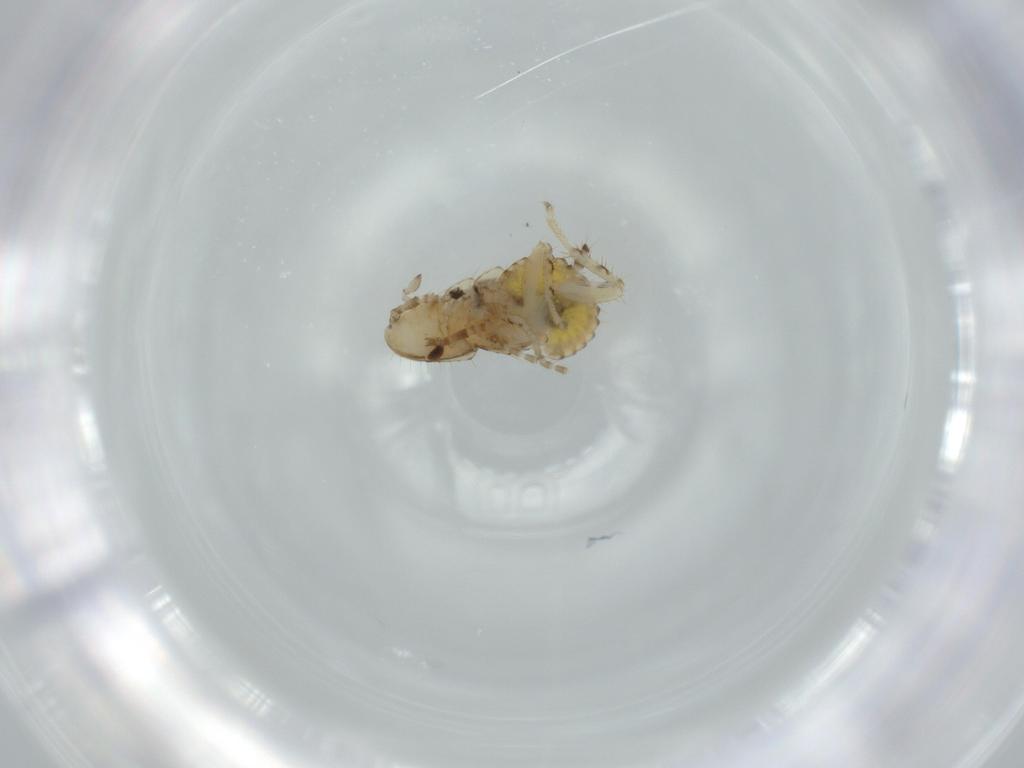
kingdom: Animalia
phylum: Arthropoda
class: Insecta
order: Blattodea
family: Ectobiidae
